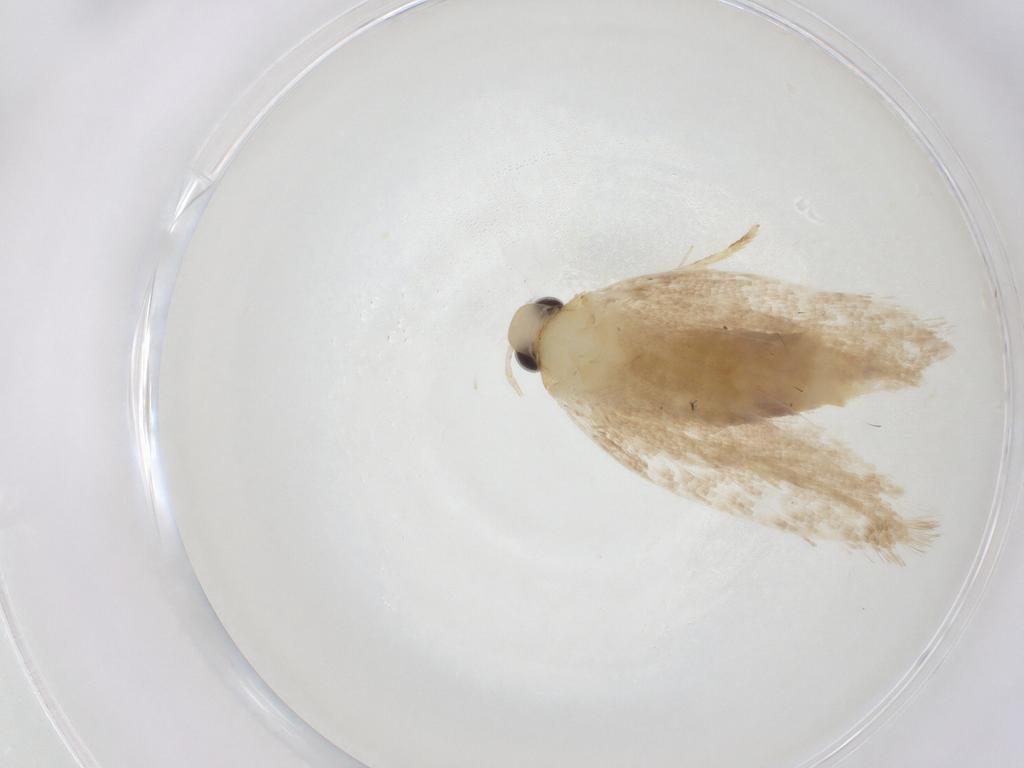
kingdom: Animalia
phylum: Arthropoda
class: Insecta
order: Lepidoptera
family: Autostichidae
